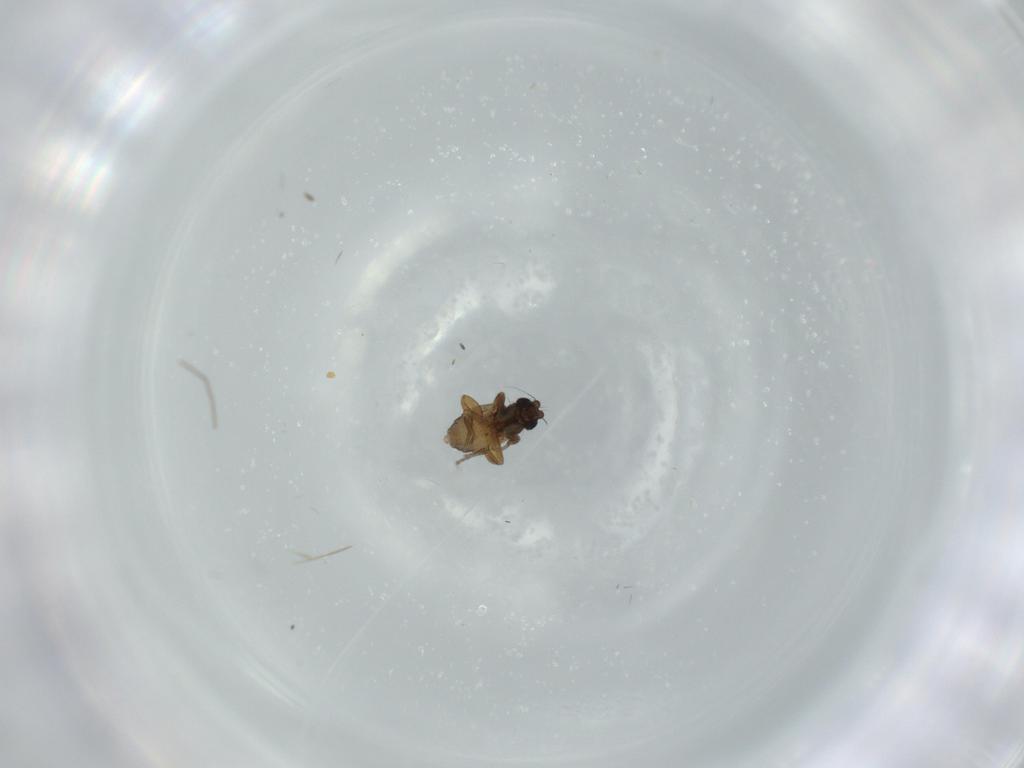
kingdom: Animalia
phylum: Arthropoda
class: Insecta
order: Diptera
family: Phoridae
